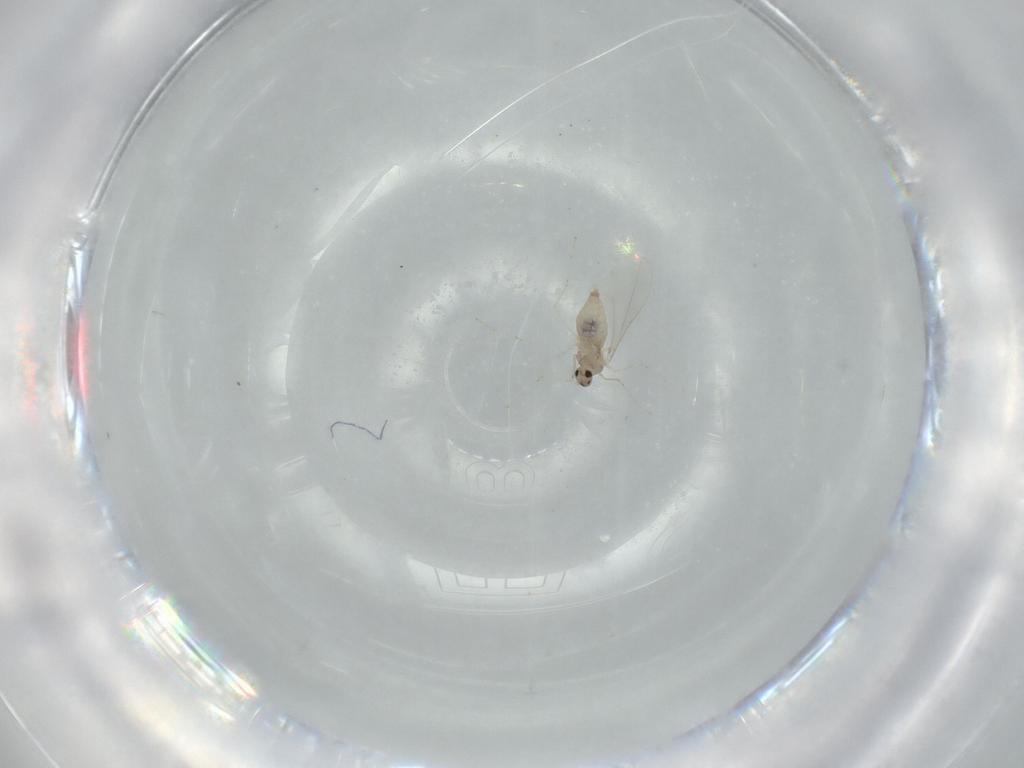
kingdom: Animalia
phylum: Arthropoda
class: Insecta
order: Diptera
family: Cecidomyiidae
